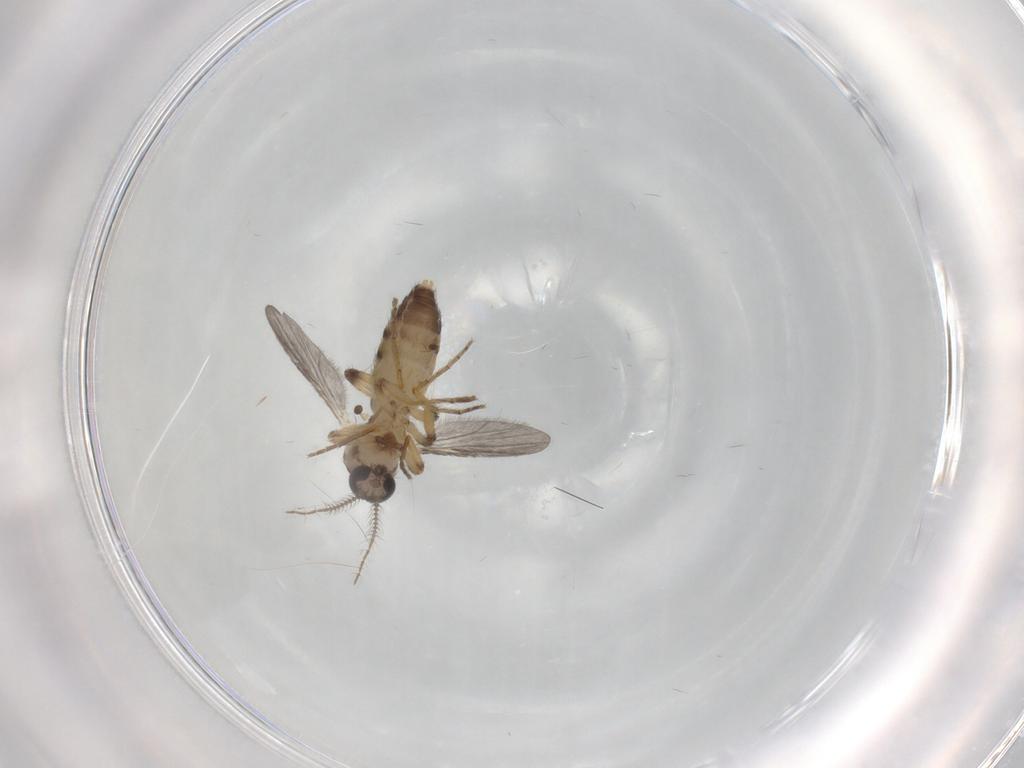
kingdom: Animalia
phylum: Arthropoda
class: Insecta
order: Diptera
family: Ceratopogonidae
